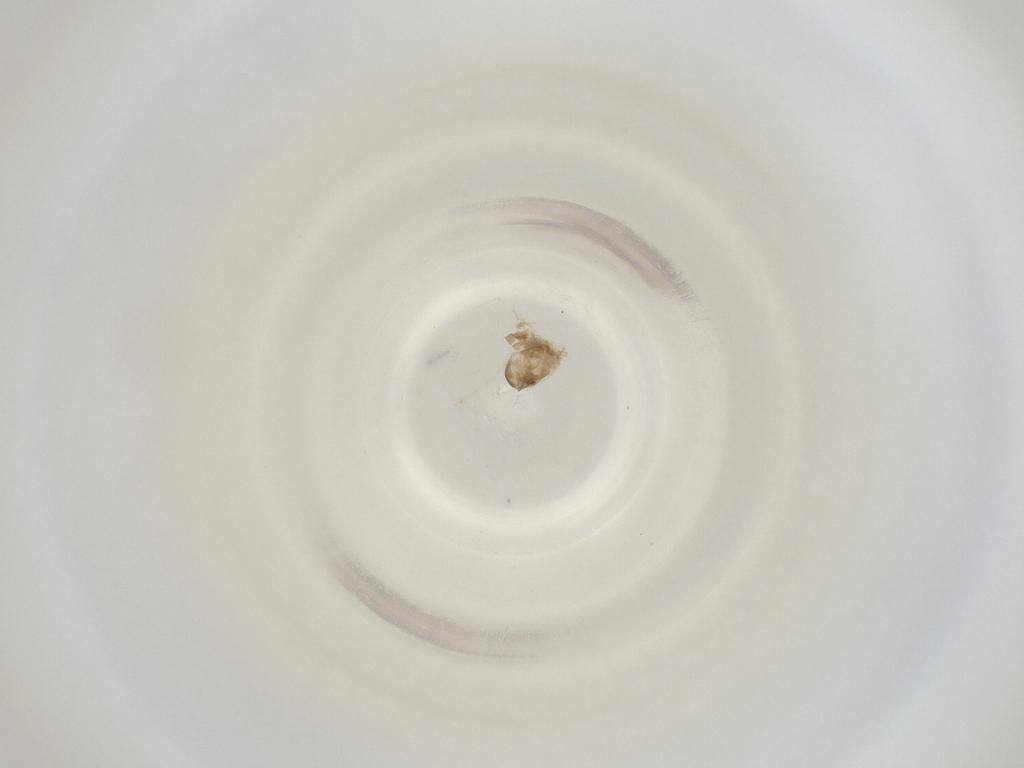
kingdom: Animalia
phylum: Arthropoda
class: Insecta
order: Diptera
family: Cecidomyiidae
